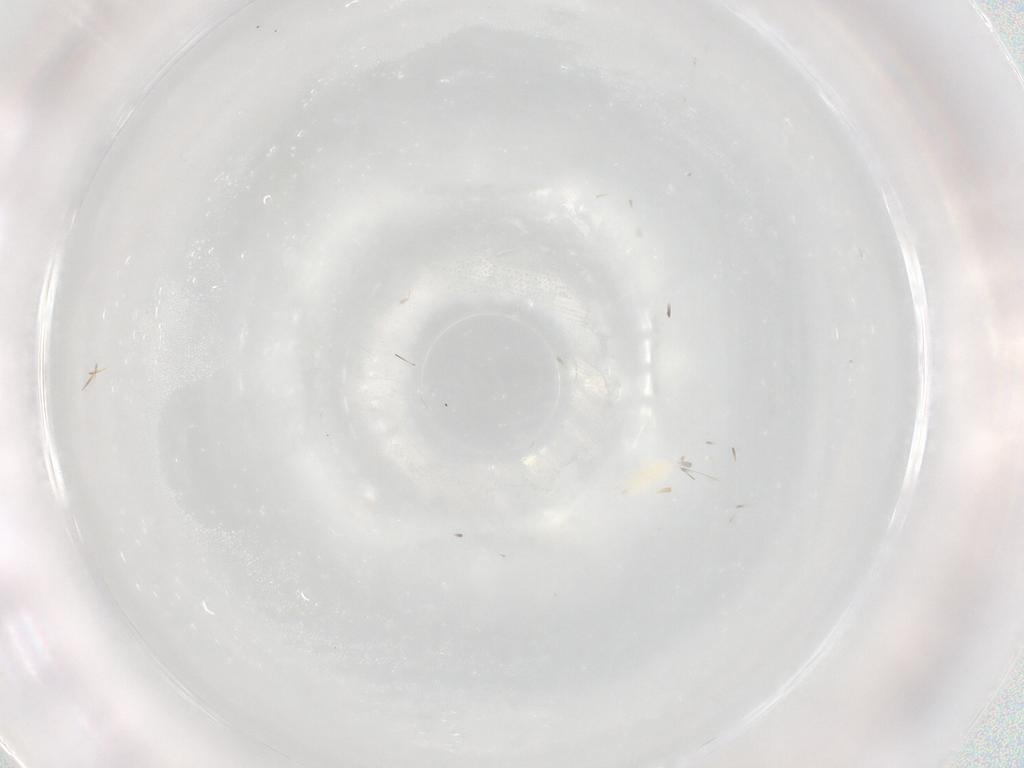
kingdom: Animalia
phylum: Arthropoda
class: Arachnida
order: Trombidiformes
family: Eupodidae
